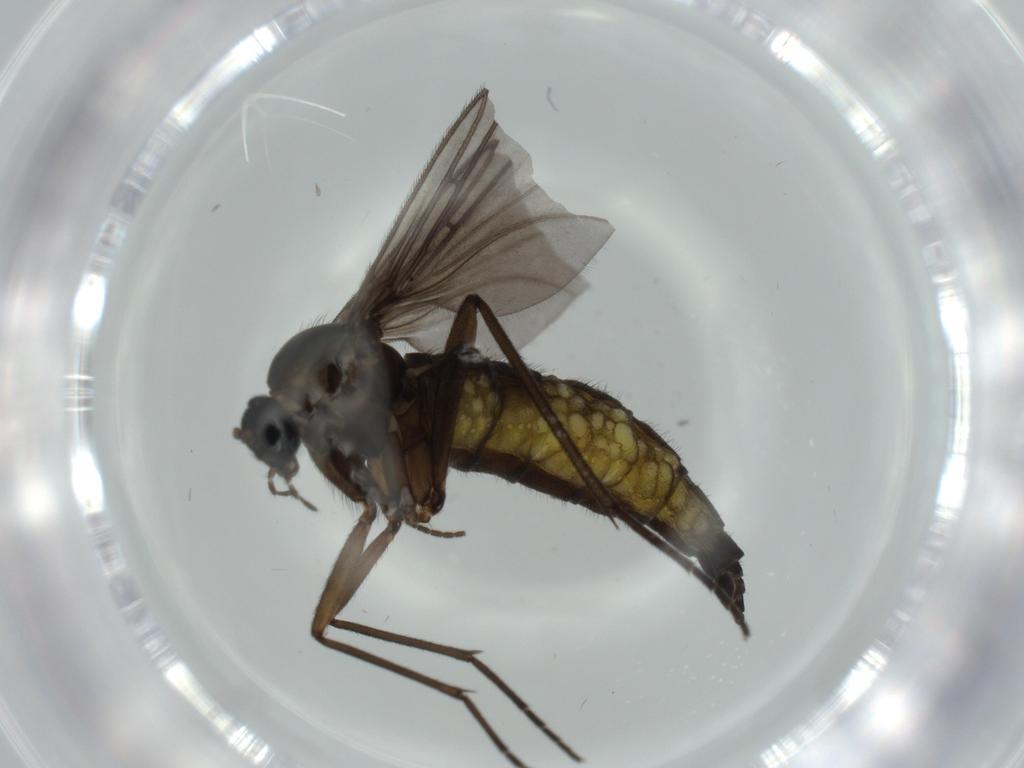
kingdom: Animalia
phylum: Arthropoda
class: Insecta
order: Diptera
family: Sciaridae
